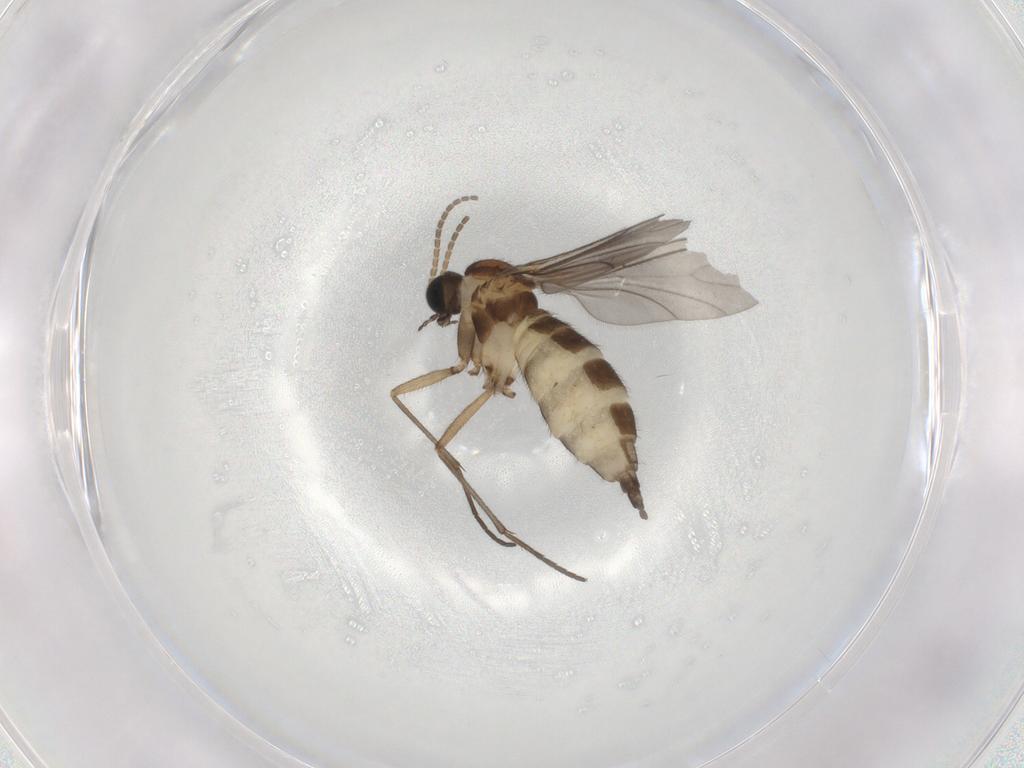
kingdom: Animalia
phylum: Arthropoda
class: Insecta
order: Diptera
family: Sciaridae
